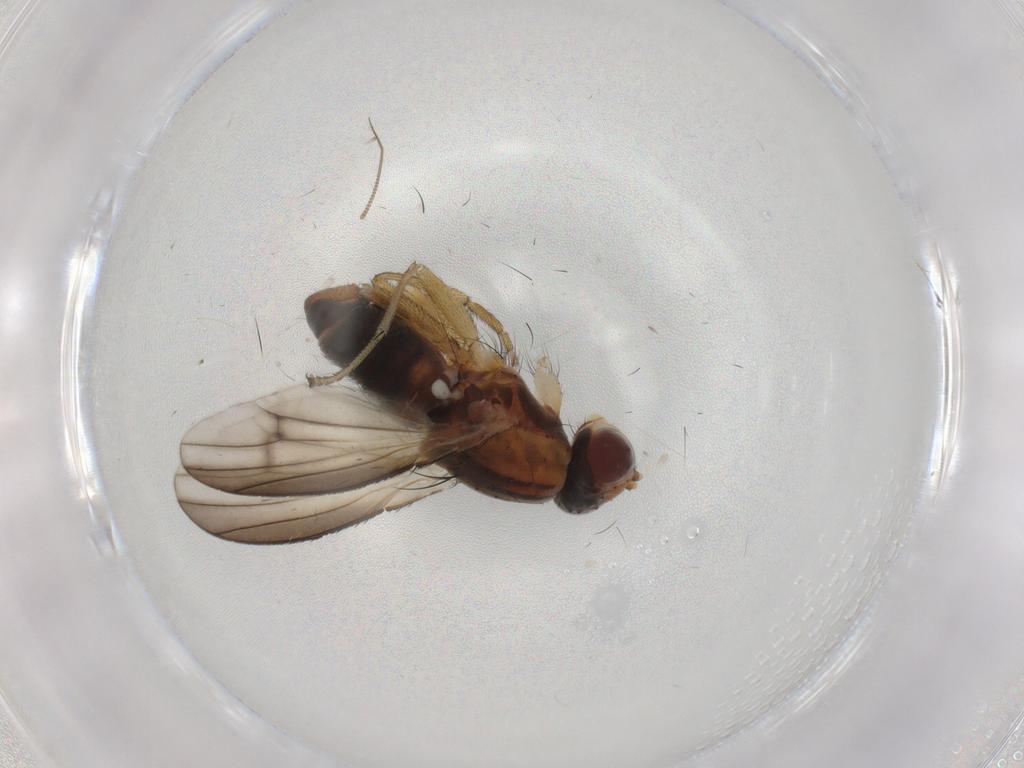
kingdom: Animalia
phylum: Arthropoda
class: Insecta
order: Diptera
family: Heleomyzidae
